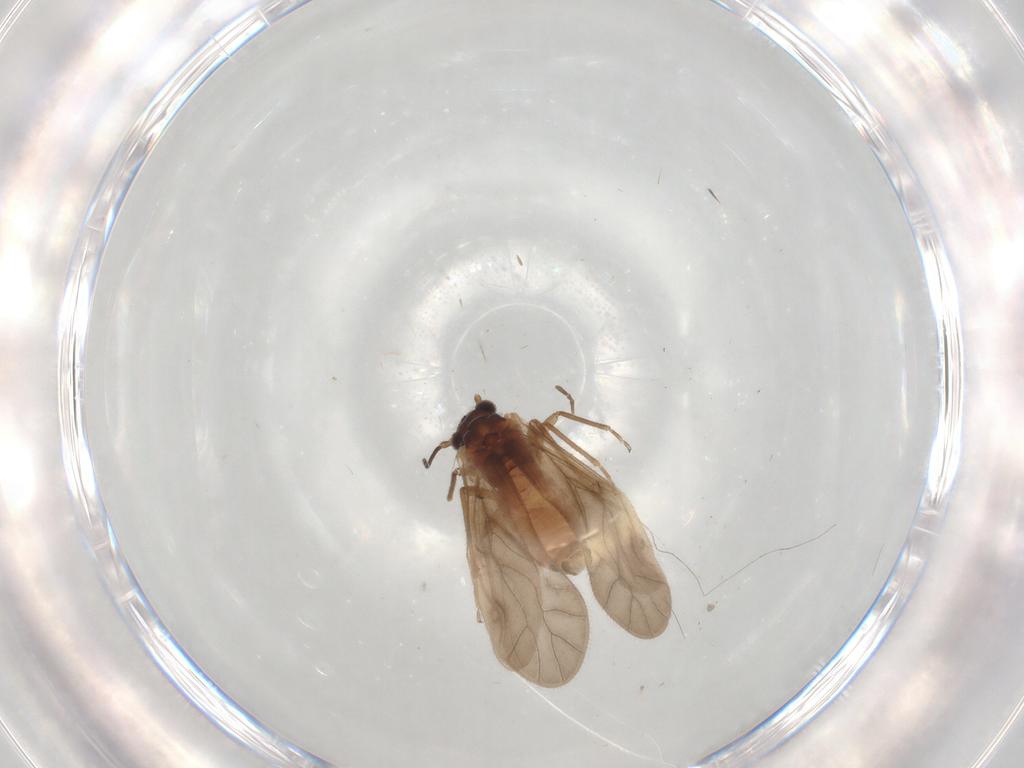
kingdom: Animalia
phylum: Arthropoda
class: Insecta
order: Psocodea
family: Caeciliusidae
